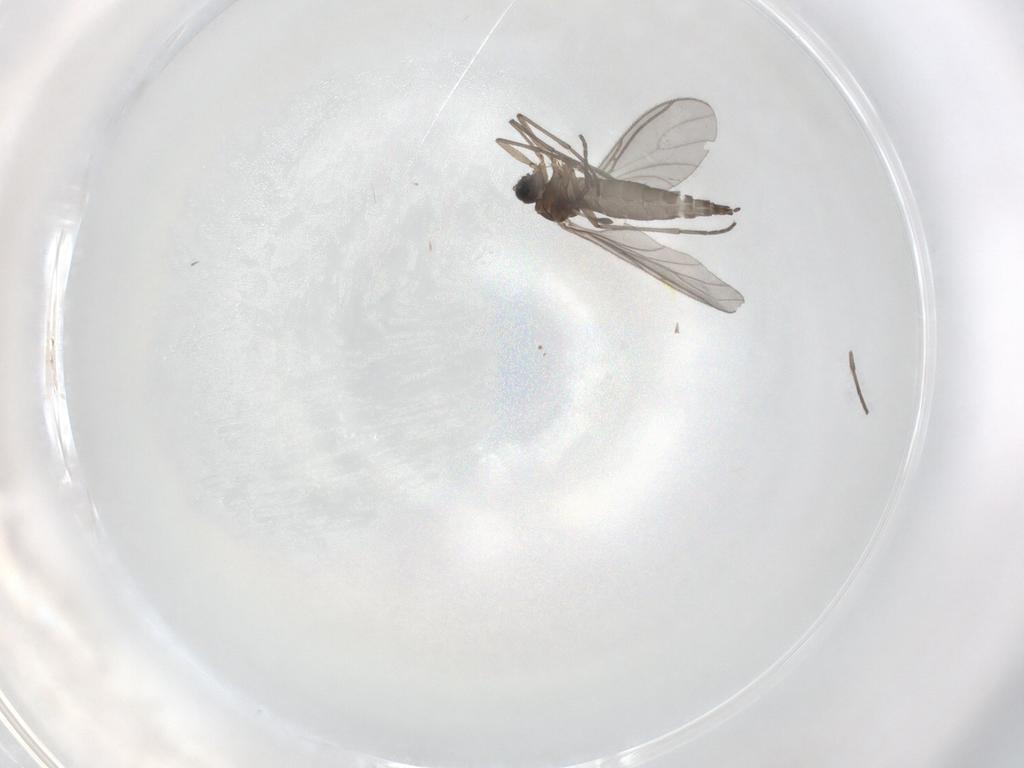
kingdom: Animalia
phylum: Arthropoda
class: Insecta
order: Diptera
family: Sciaridae
